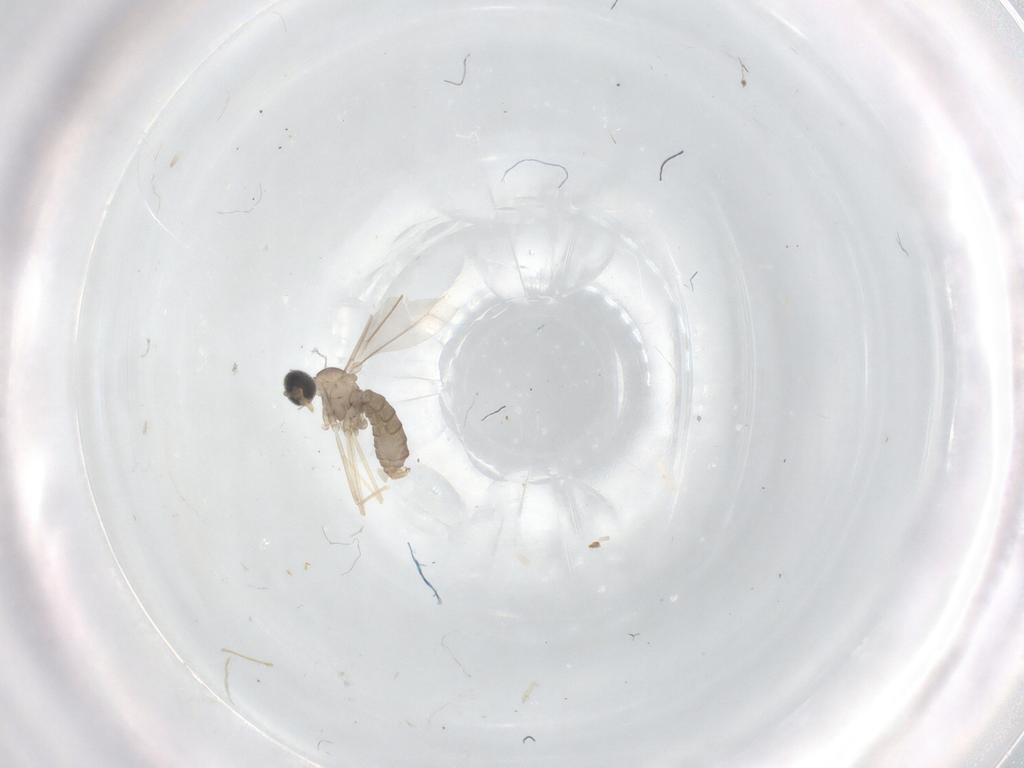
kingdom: Animalia
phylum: Arthropoda
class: Insecta
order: Diptera
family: Cecidomyiidae
